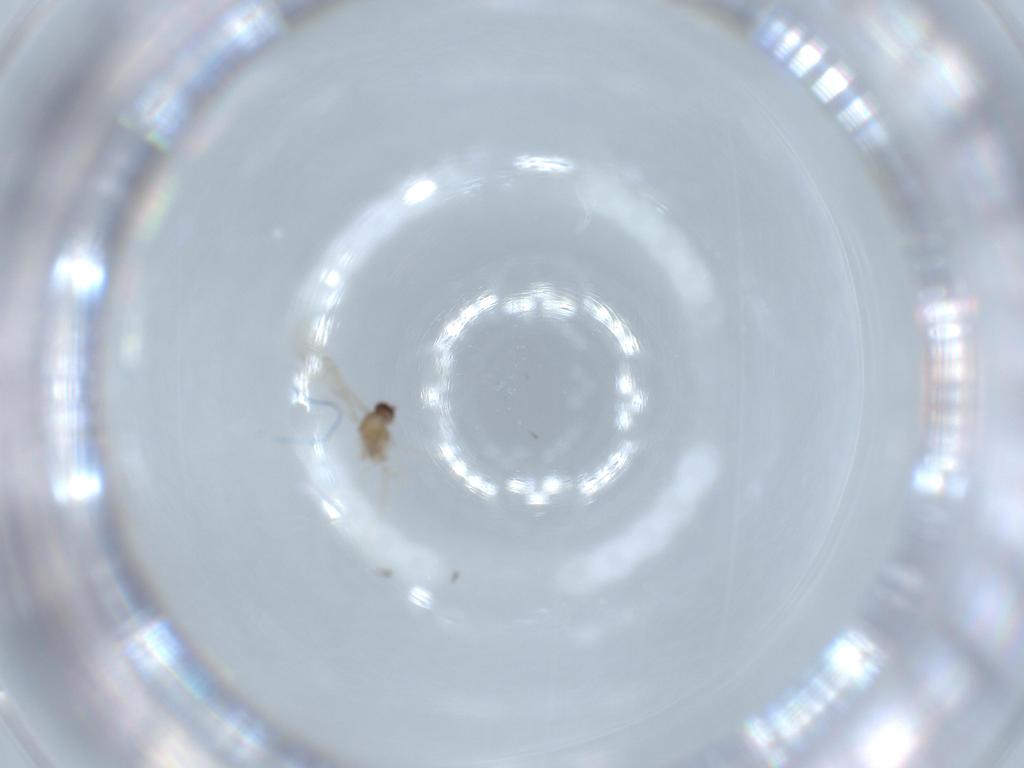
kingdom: Animalia
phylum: Arthropoda
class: Insecta
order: Diptera
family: Cecidomyiidae
